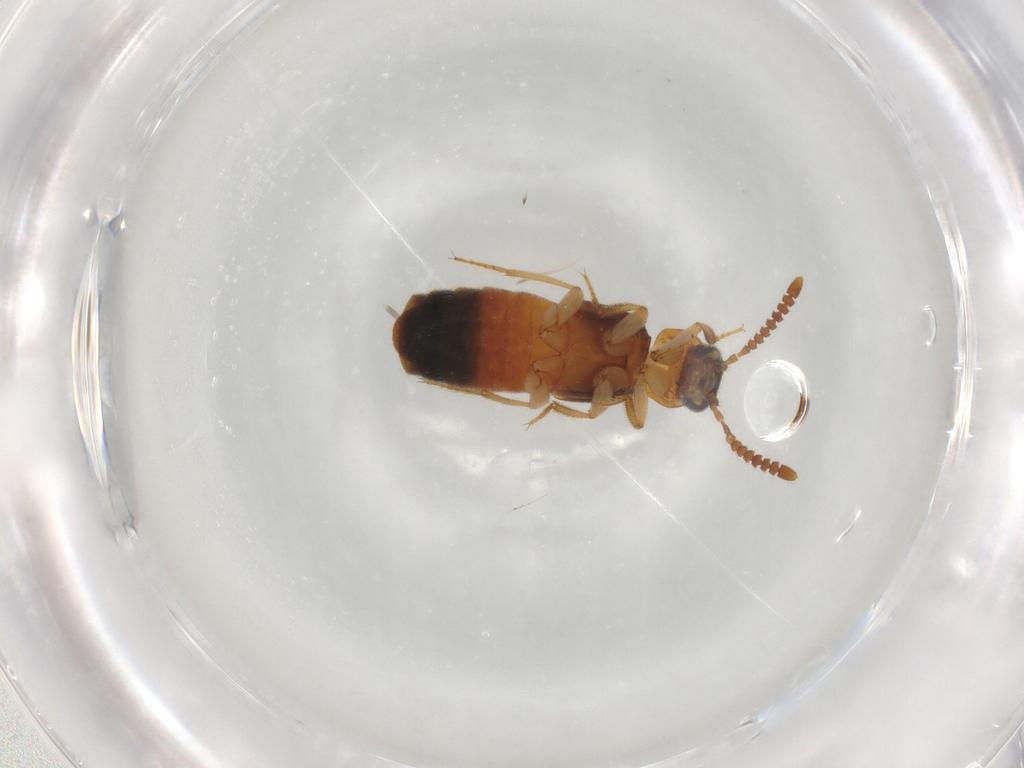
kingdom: Animalia
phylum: Arthropoda
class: Insecta
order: Coleoptera
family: Staphylinidae
